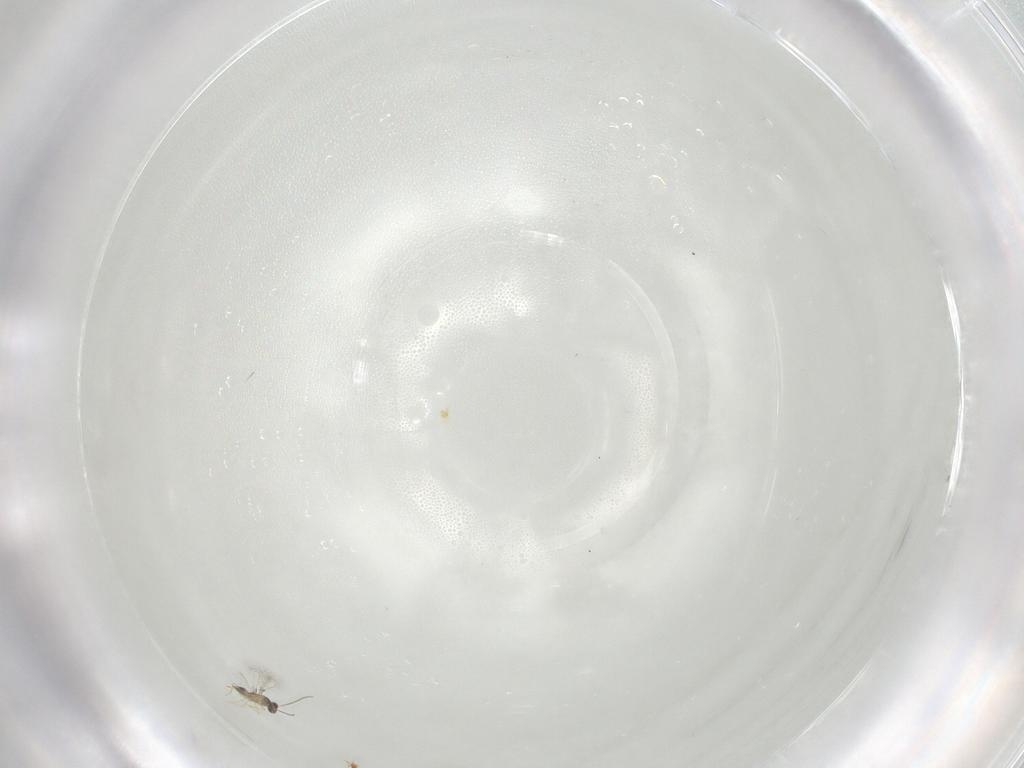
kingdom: Animalia
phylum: Arthropoda
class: Insecta
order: Hymenoptera
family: Mymaridae
